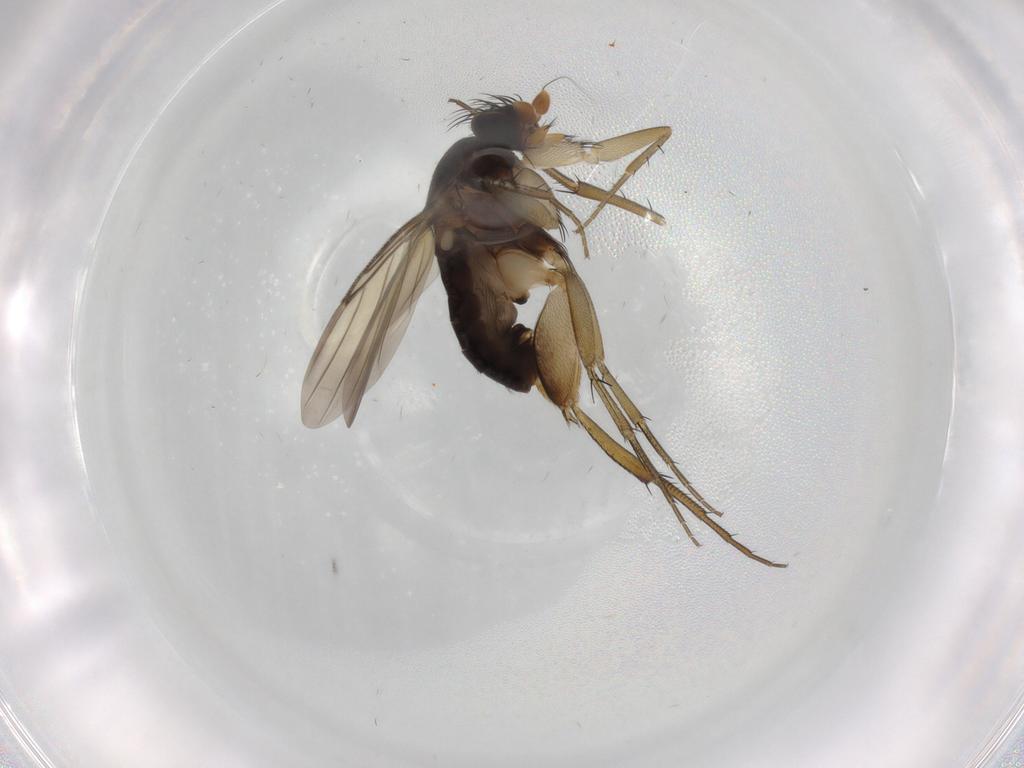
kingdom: Animalia
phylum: Arthropoda
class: Insecta
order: Diptera
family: Phoridae
